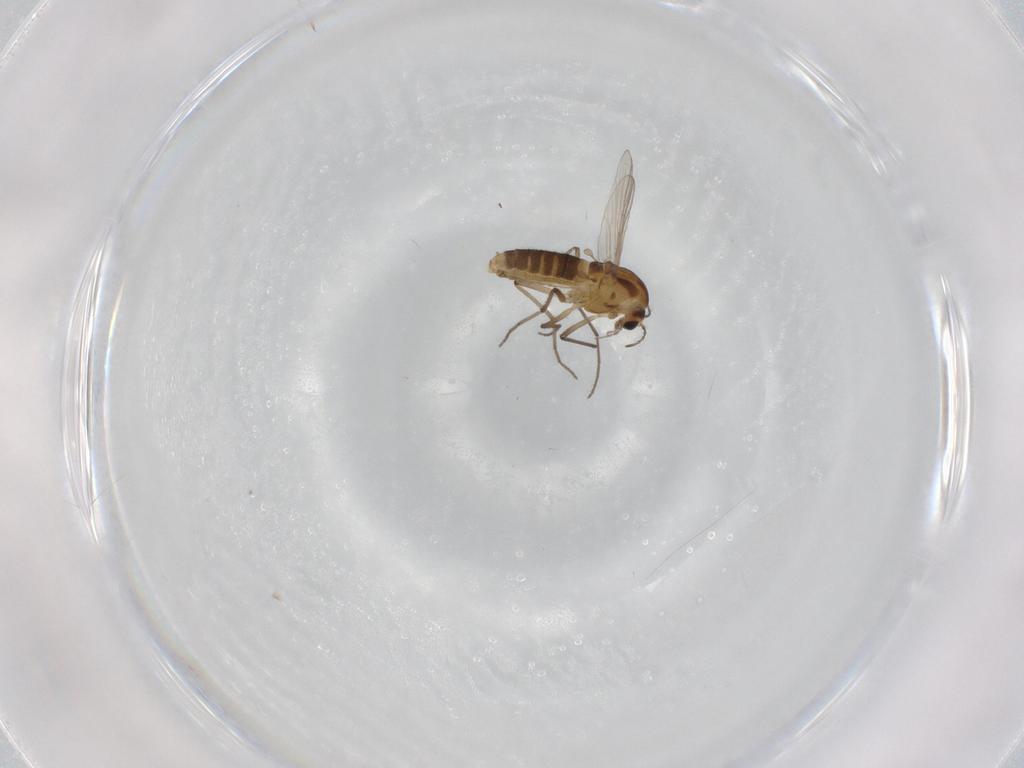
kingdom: Animalia
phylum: Arthropoda
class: Insecta
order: Diptera
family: Chironomidae
